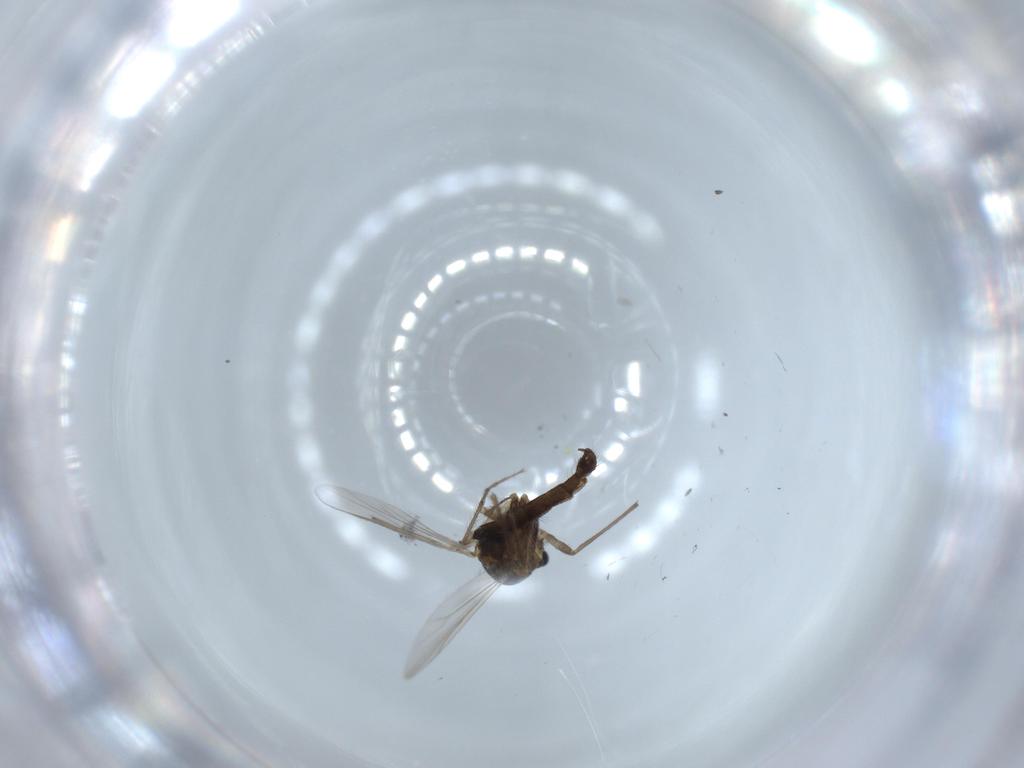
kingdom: Animalia
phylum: Arthropoda
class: Insecta
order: Diptera
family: Chironomidae
